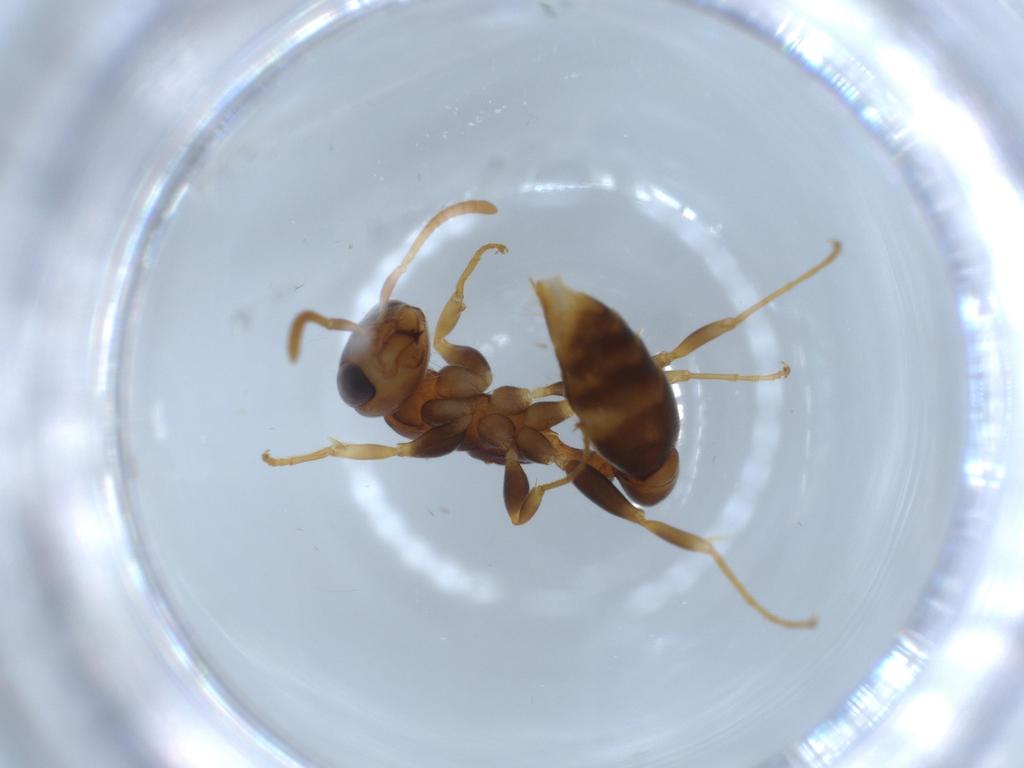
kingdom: Animalia
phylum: Arthropoda
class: Insecta
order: Hymenoptera
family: Formicidae
